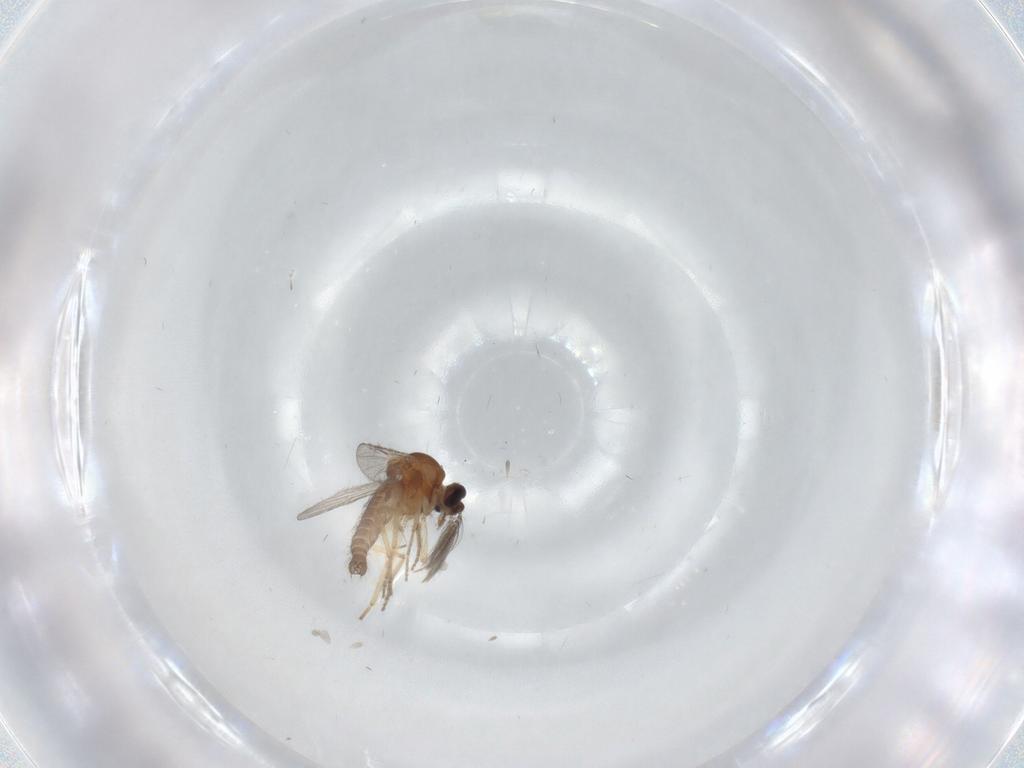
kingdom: Animalia
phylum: Arthropoda
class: Insecta
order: Diptera
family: Ceratopogonidae
